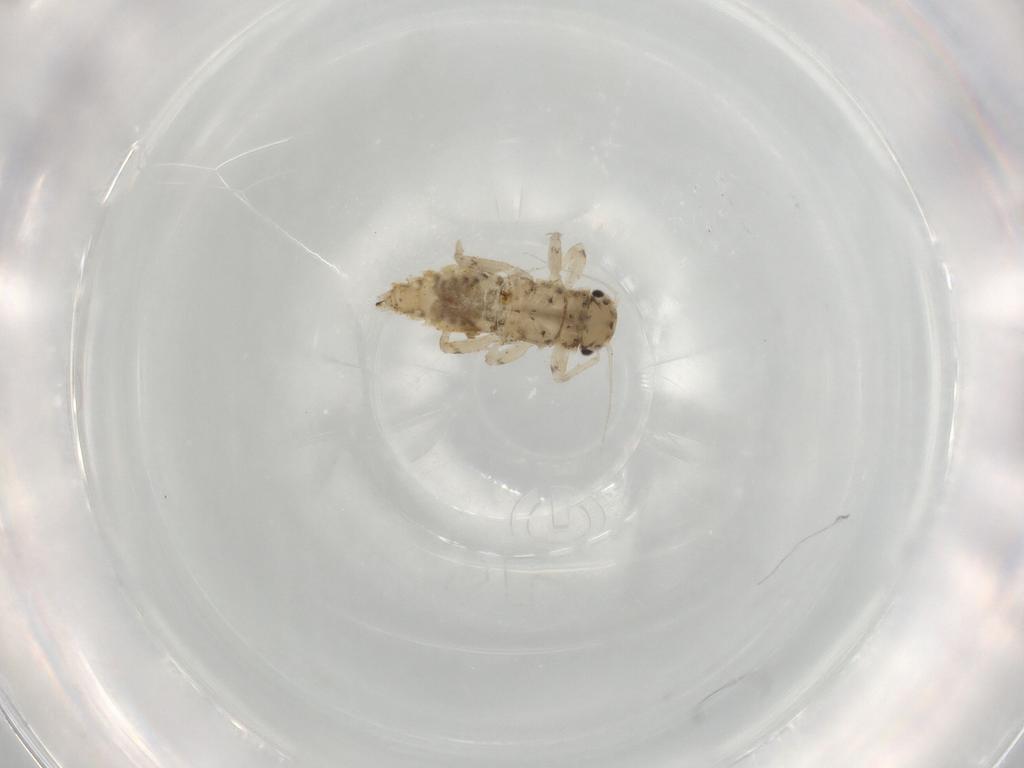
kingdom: Animalia
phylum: Arthropoda
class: Insecta
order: Ephemeroptera
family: Caenidae
